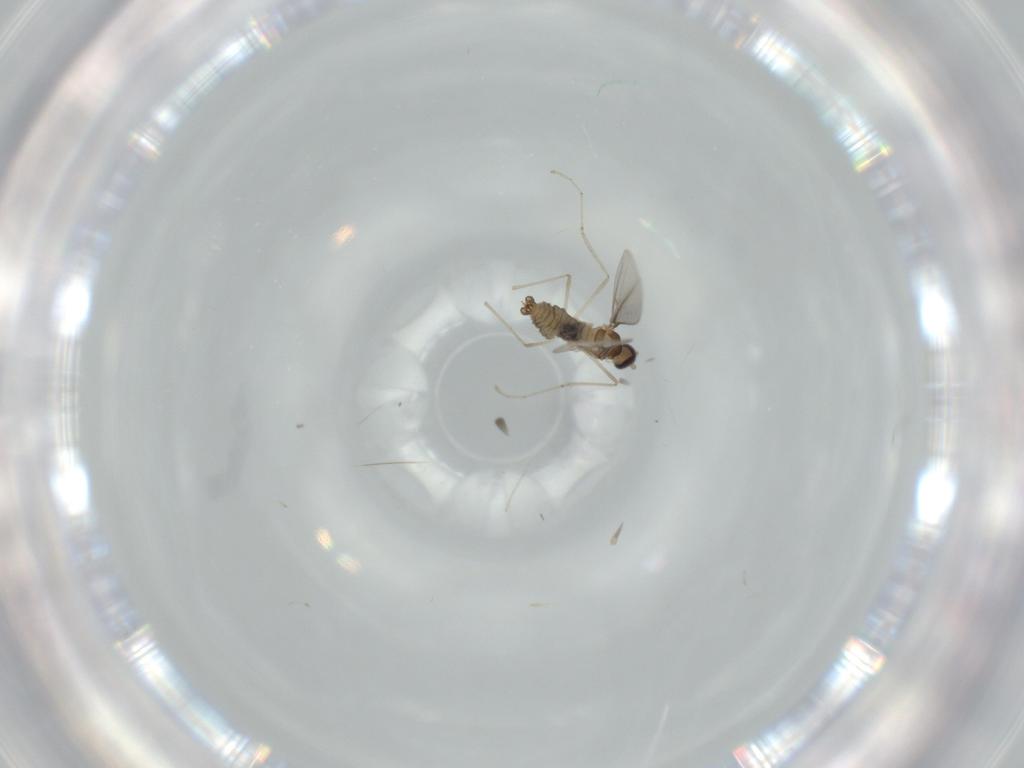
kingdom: Animalia
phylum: Arthropoda
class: Insecta
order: Diptera
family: Cecidomyiidae
